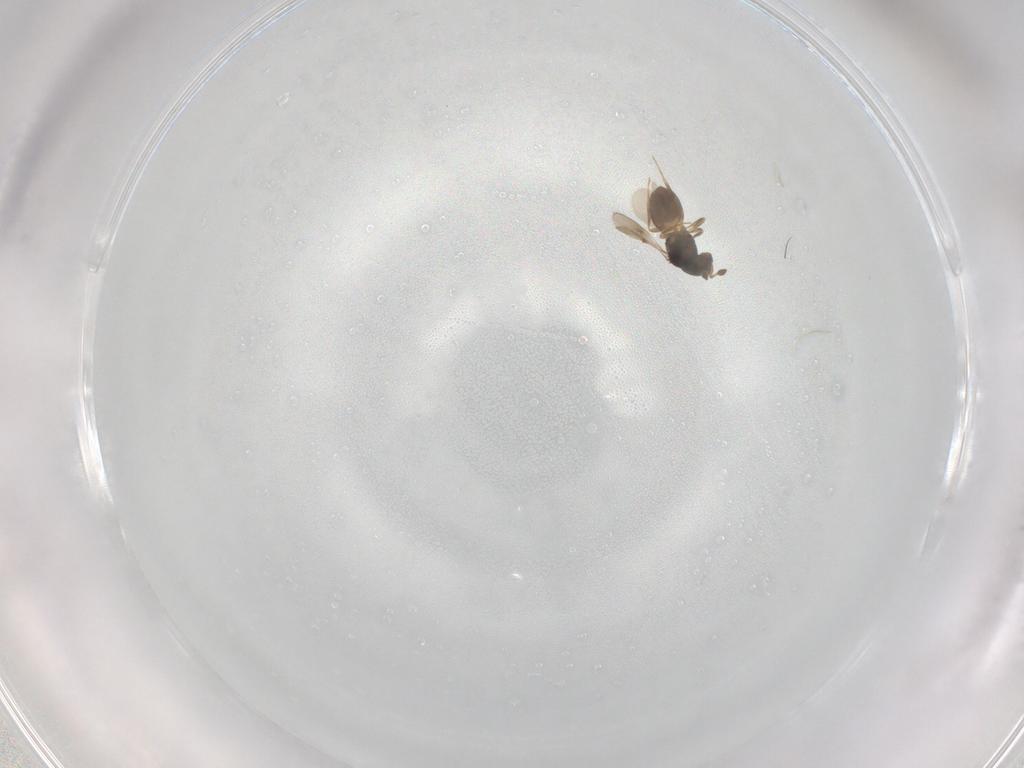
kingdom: Animalia
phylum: Arthropoda
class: Insecta
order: Hymenoptera
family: Scelionidae
